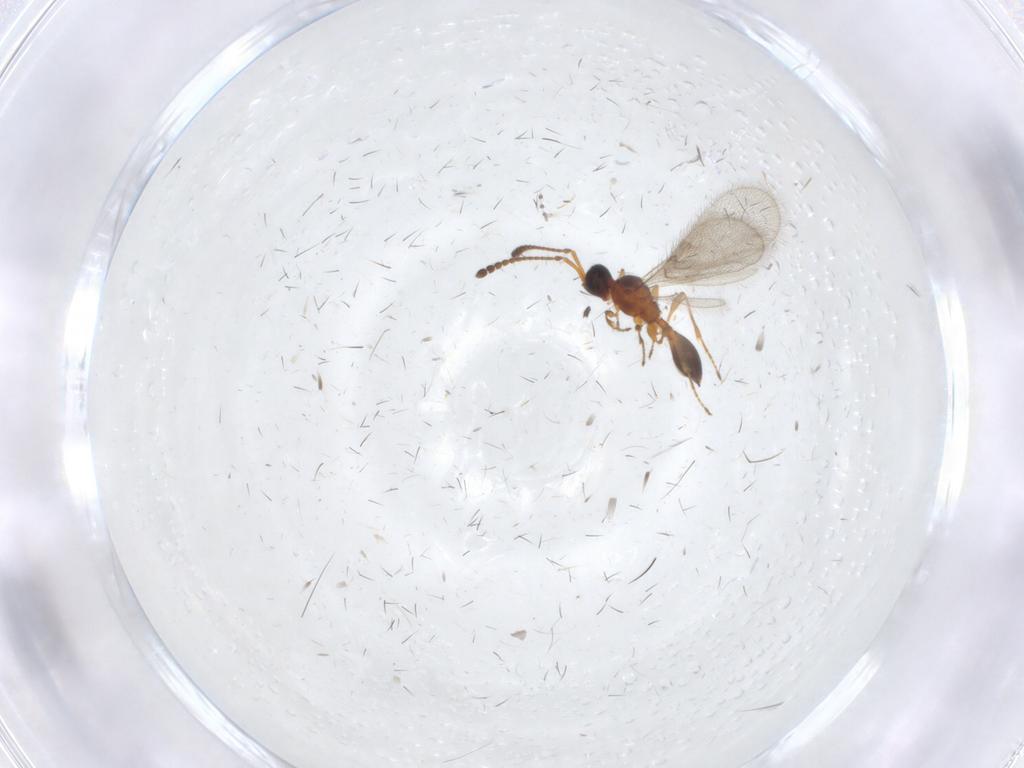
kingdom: Animalia
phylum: Arthropoda
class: Insecta
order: Hymenoptera
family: Diapriidae
